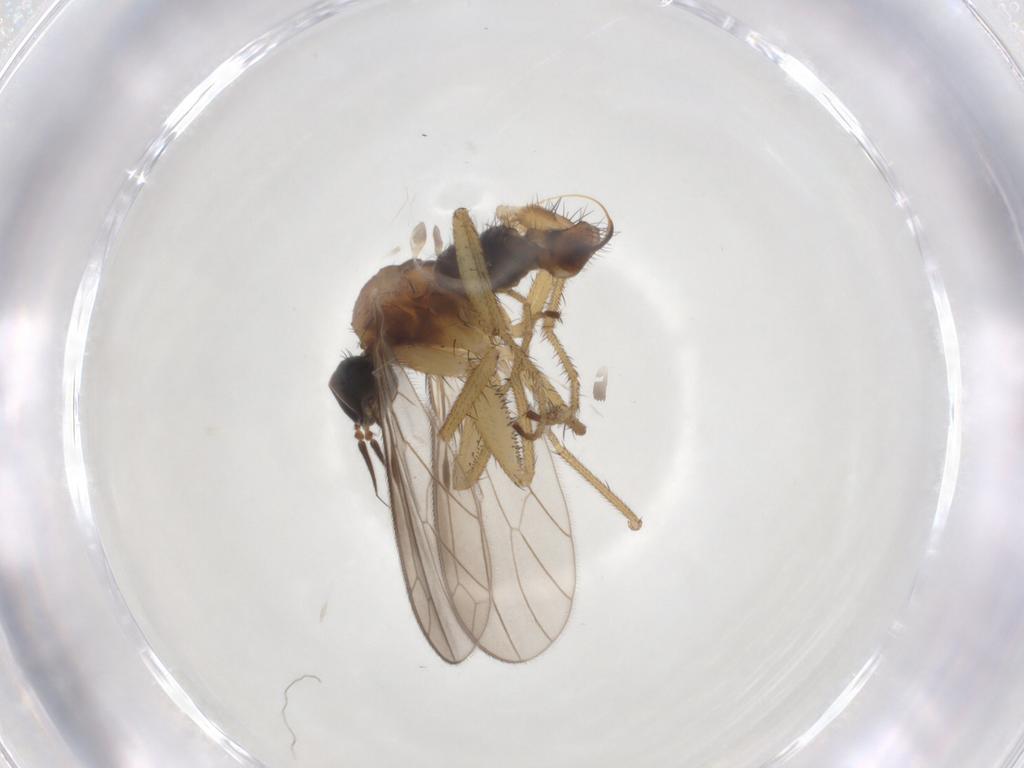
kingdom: Animalia
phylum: Arthropoda
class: Insecta
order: Diptera
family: Empididae
